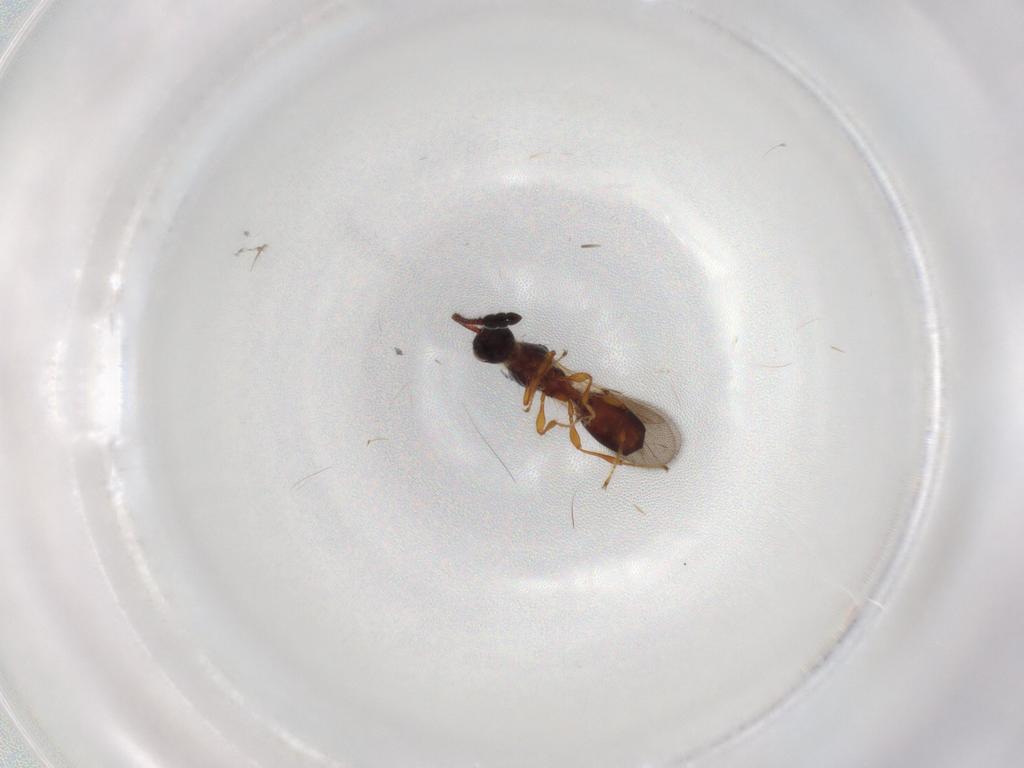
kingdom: Animalia
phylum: Arthropoda
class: Insecta
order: Hymenoptera
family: Diapriidae
